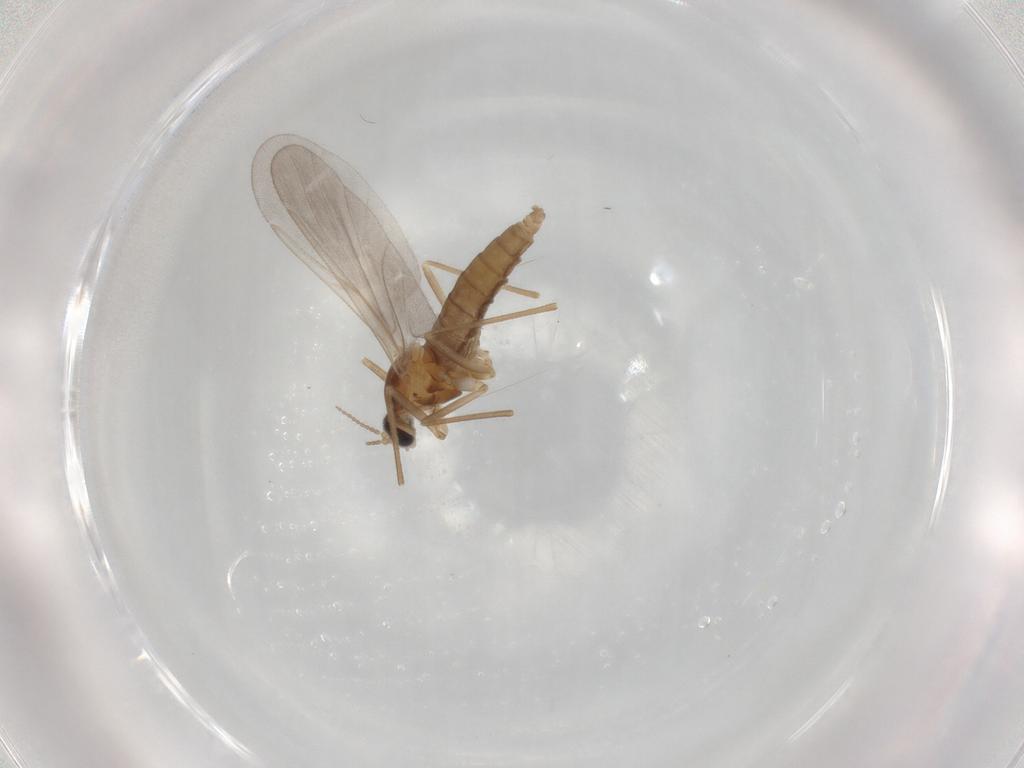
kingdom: Animalia
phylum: Arthropoda
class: Insecta
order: Diptera
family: Cecidomyiidae
